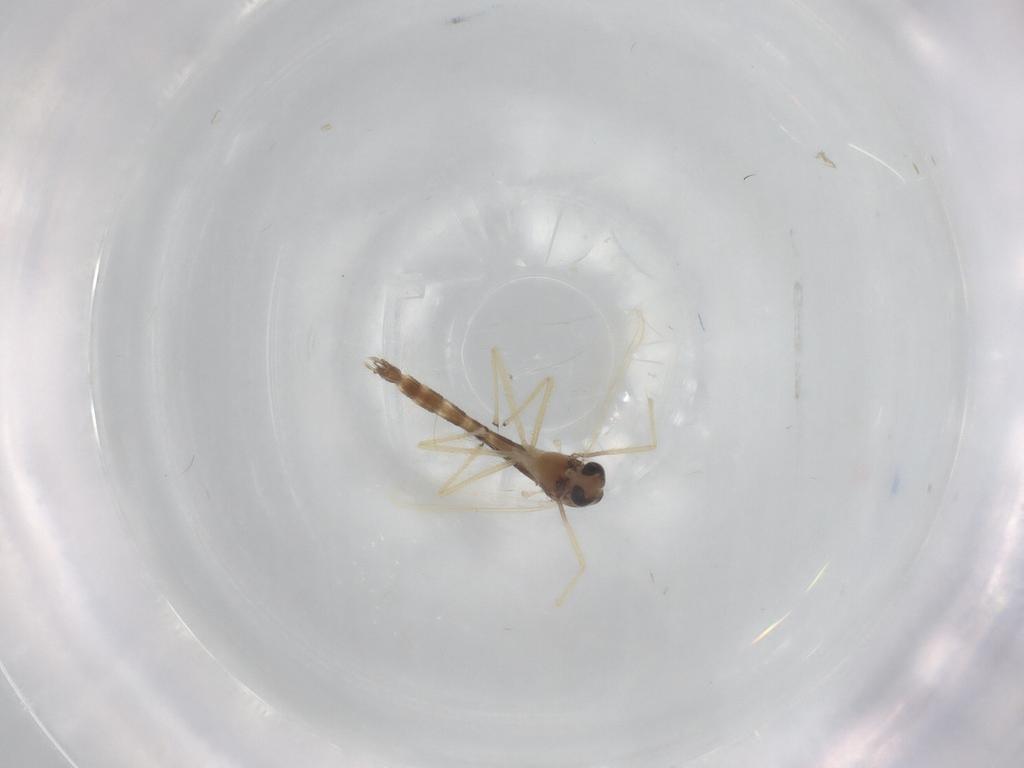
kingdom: Animalia
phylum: Arthropoda
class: Insecta
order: Diptera
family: Chironomidae
